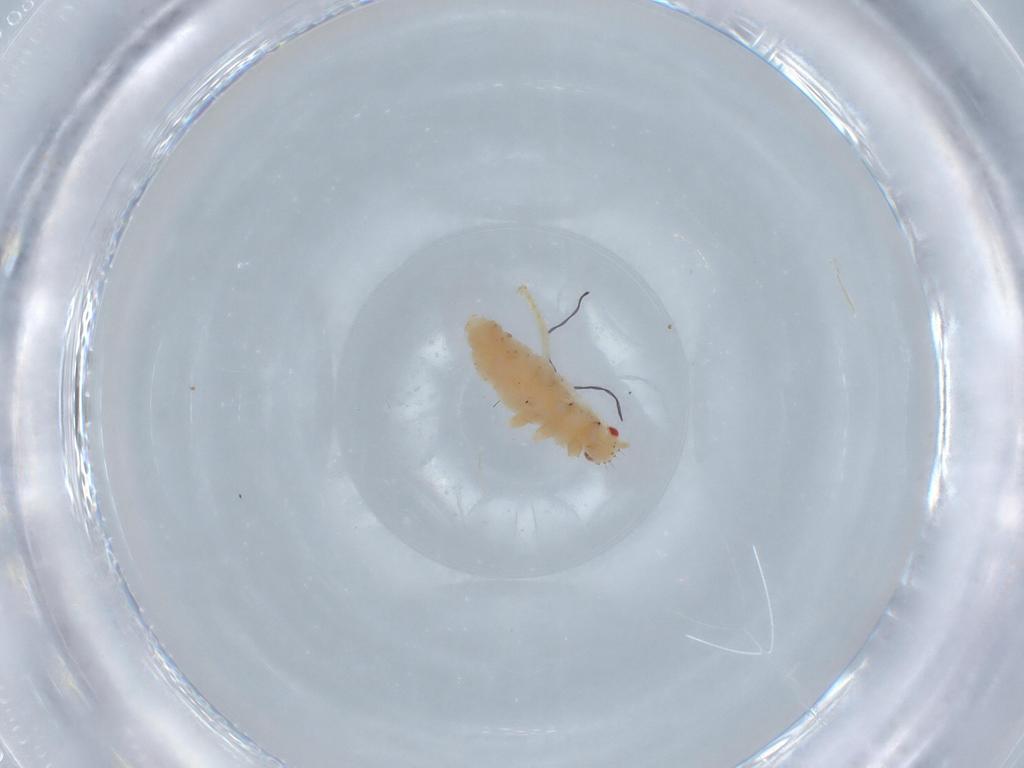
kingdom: Animalia
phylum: Arthropoda
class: Insecta
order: Hemiptera
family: Aphididae
